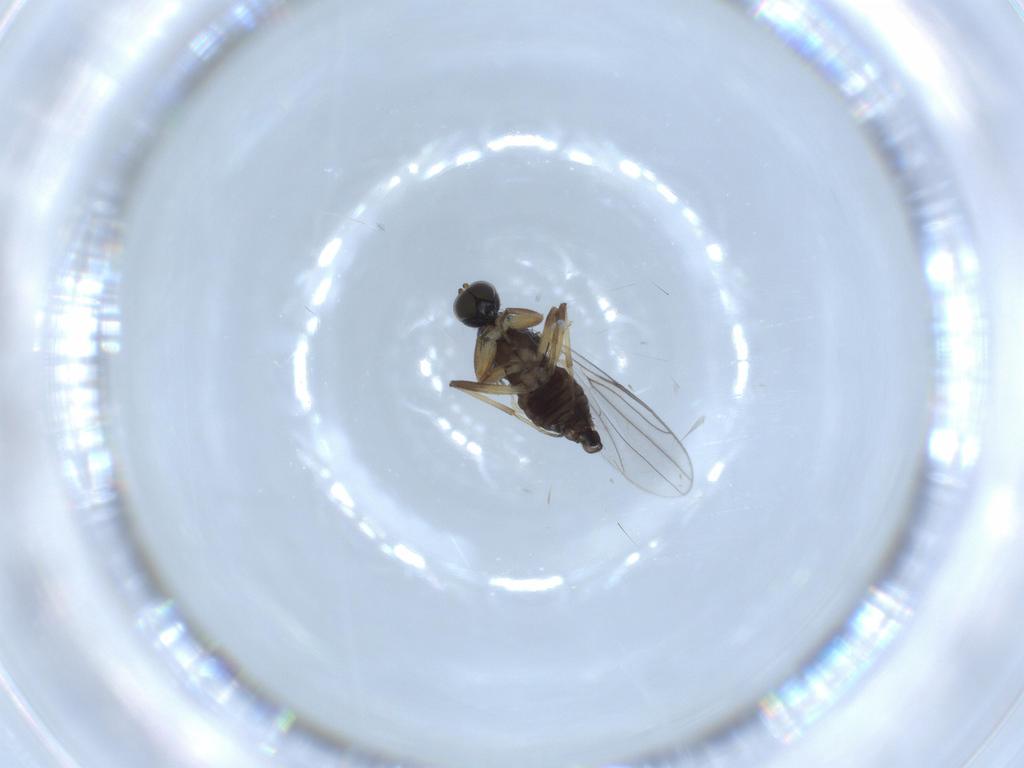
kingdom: Animalia
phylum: Arthropoda
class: Insecta
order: Diptera
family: Hybotidae
